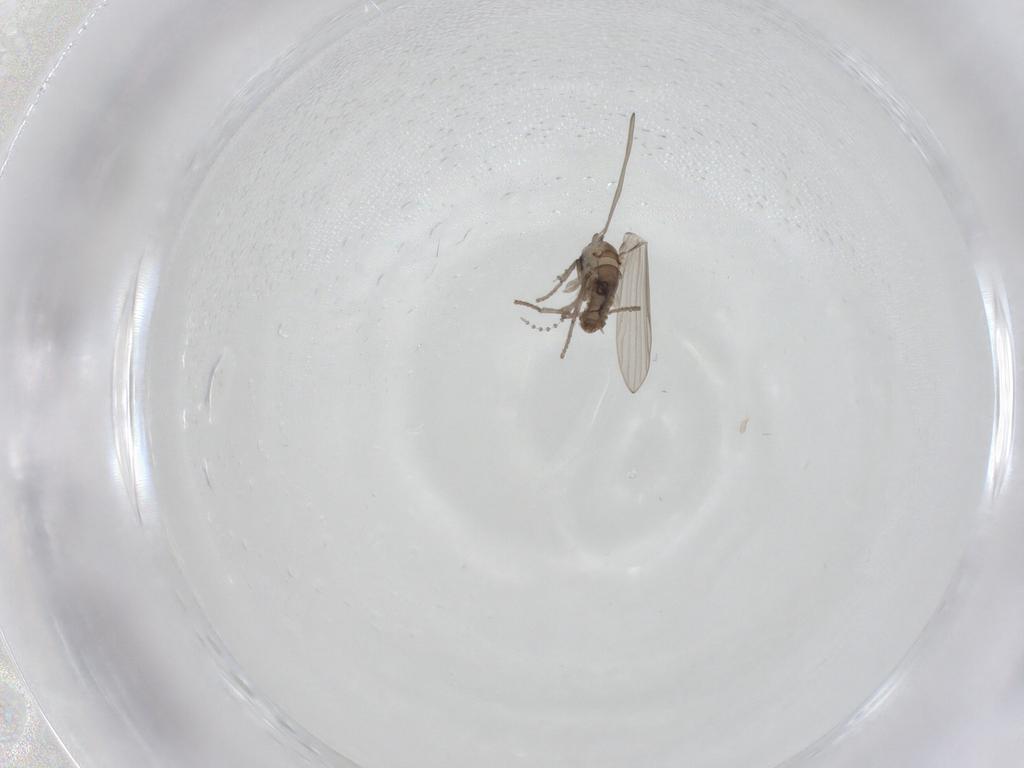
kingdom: Animalia
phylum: Arthropoda
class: Insecta
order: Diptera
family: Psychodidae
